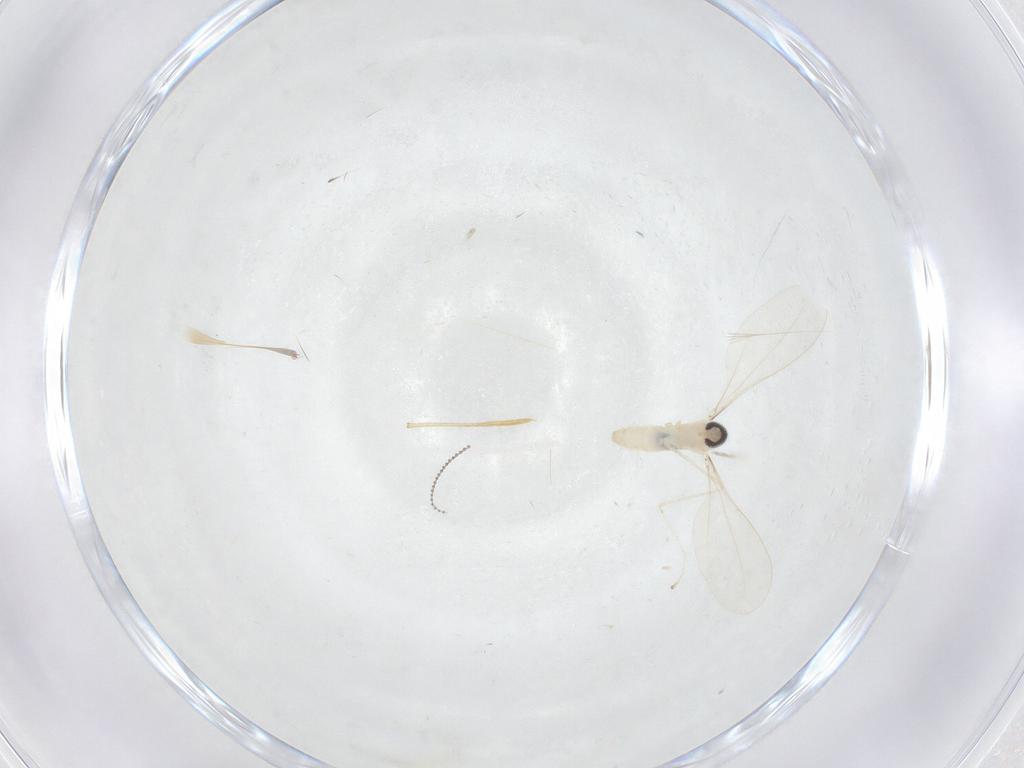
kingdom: Animalia
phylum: Arthropoda
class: Insecta
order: Diptera
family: Cecidomyiidae
